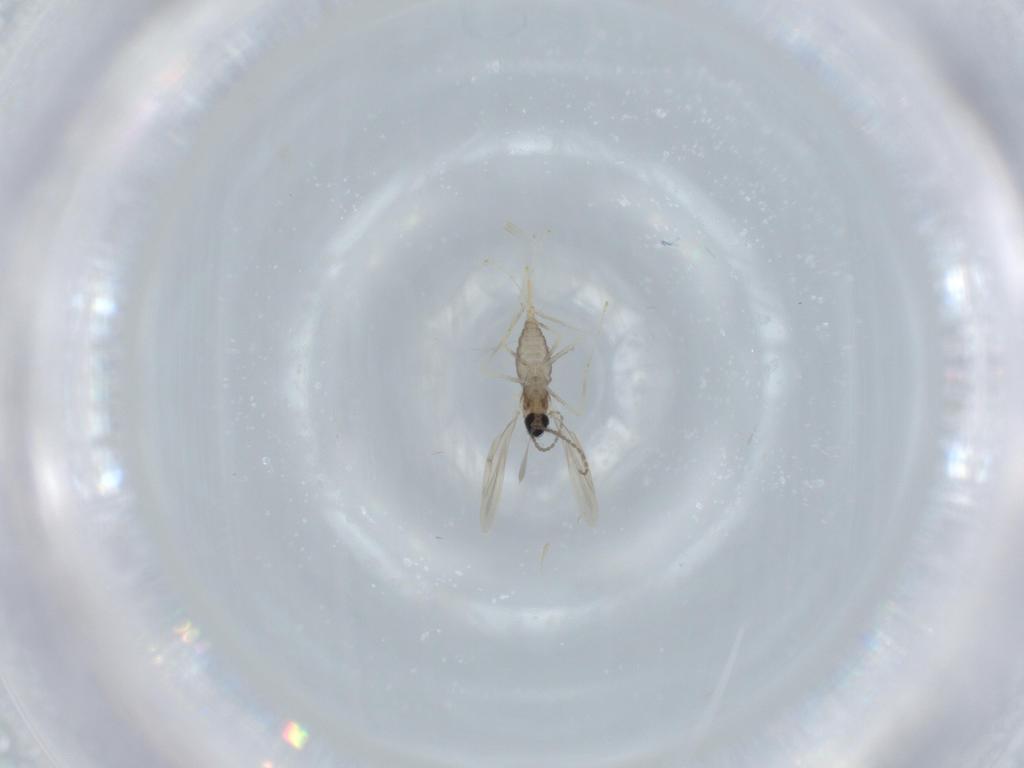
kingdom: Animalia
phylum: Arthropoda
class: Insecta
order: Diptera
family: Cecidomyiidae
